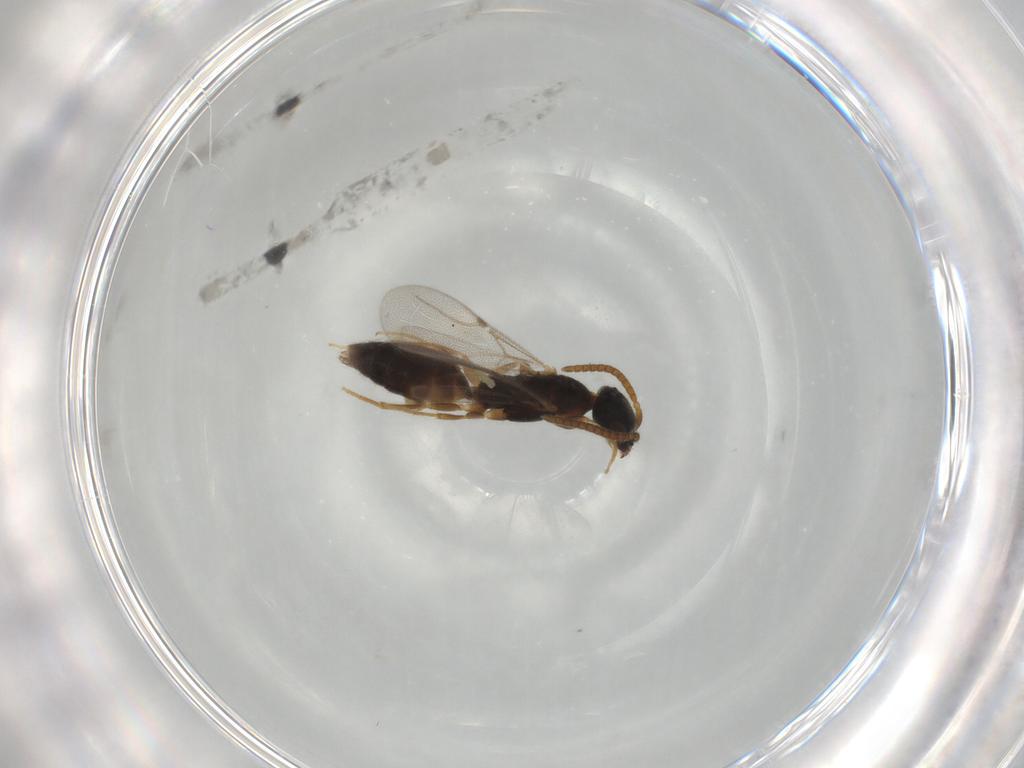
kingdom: Animalia
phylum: Arthropoda
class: Insecta
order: Hymenoptera
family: Bethylidae
